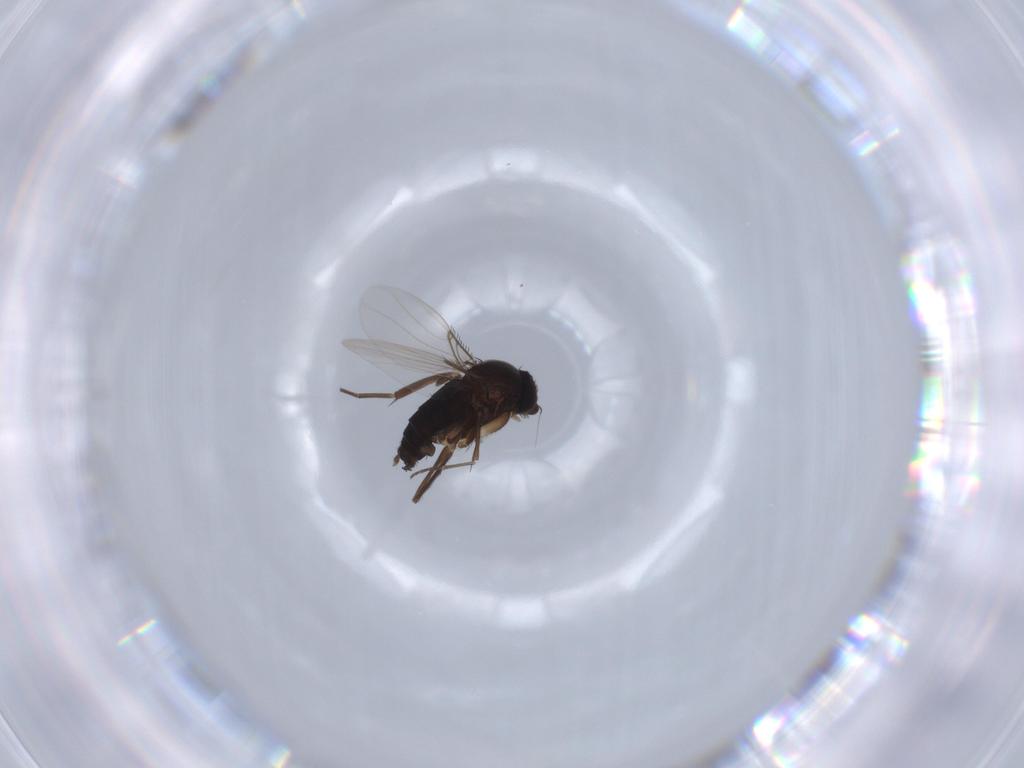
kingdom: Animalia
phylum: Arthropoda
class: Insecta
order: Diptera
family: Phoridae
